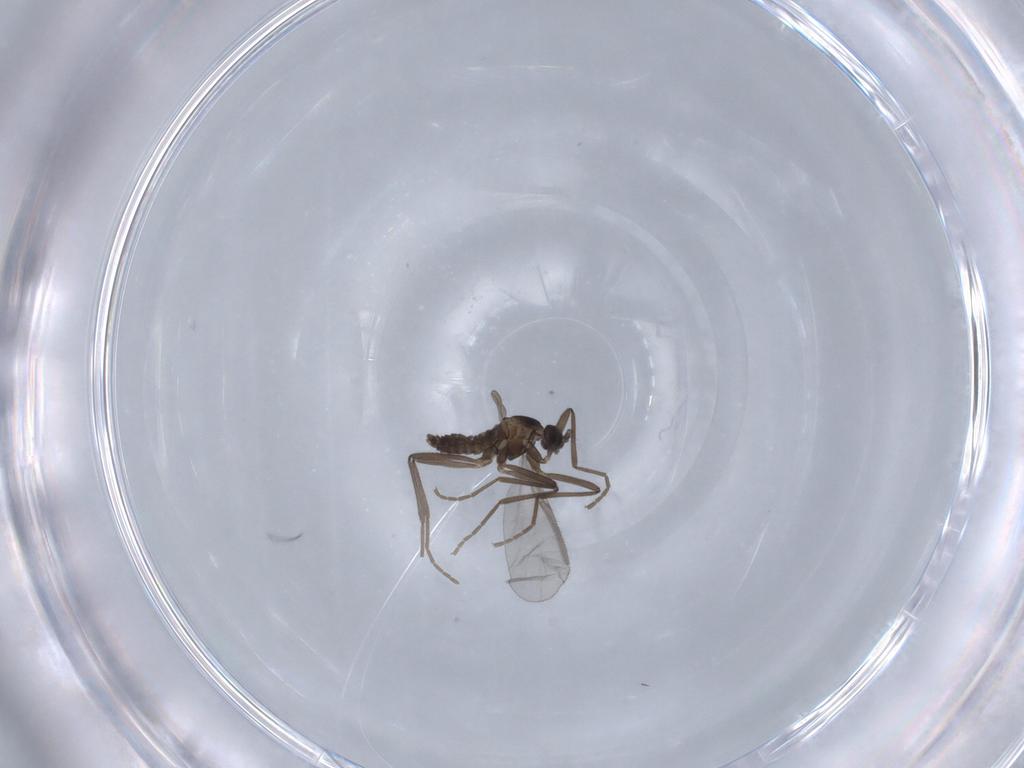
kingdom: Animalia
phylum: Arthropoda
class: Insecta
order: Diptera
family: Chironomidae
